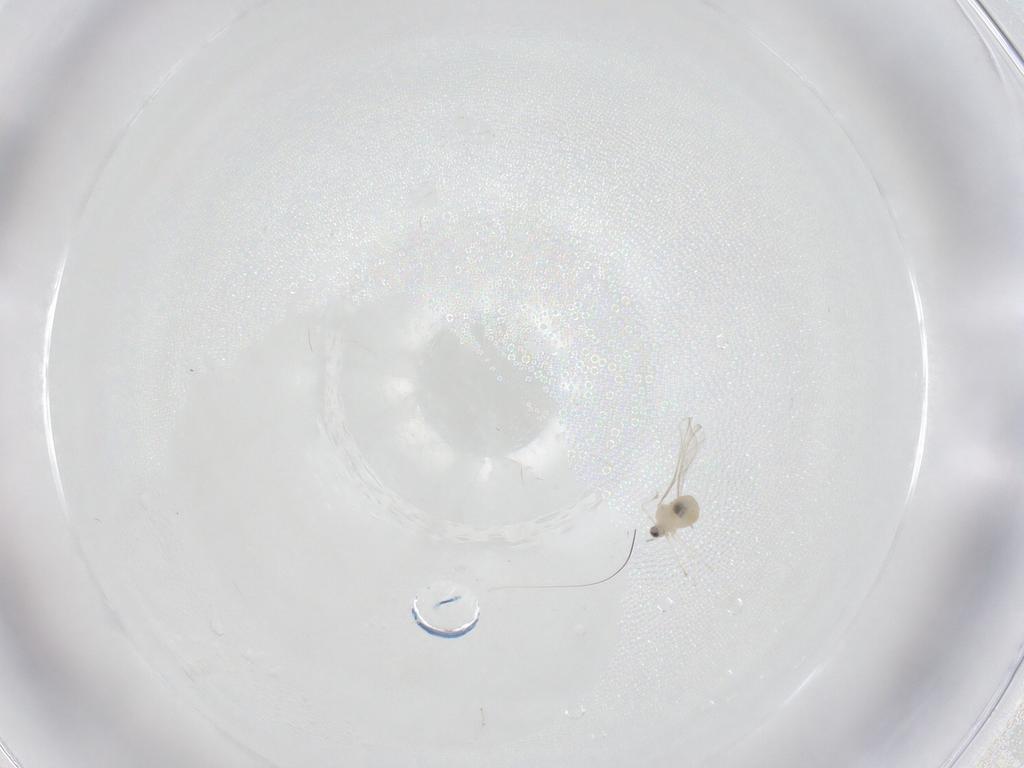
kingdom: Animalia
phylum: Arthropoda
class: Insecta
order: Diptera
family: Cecidomyiidae
